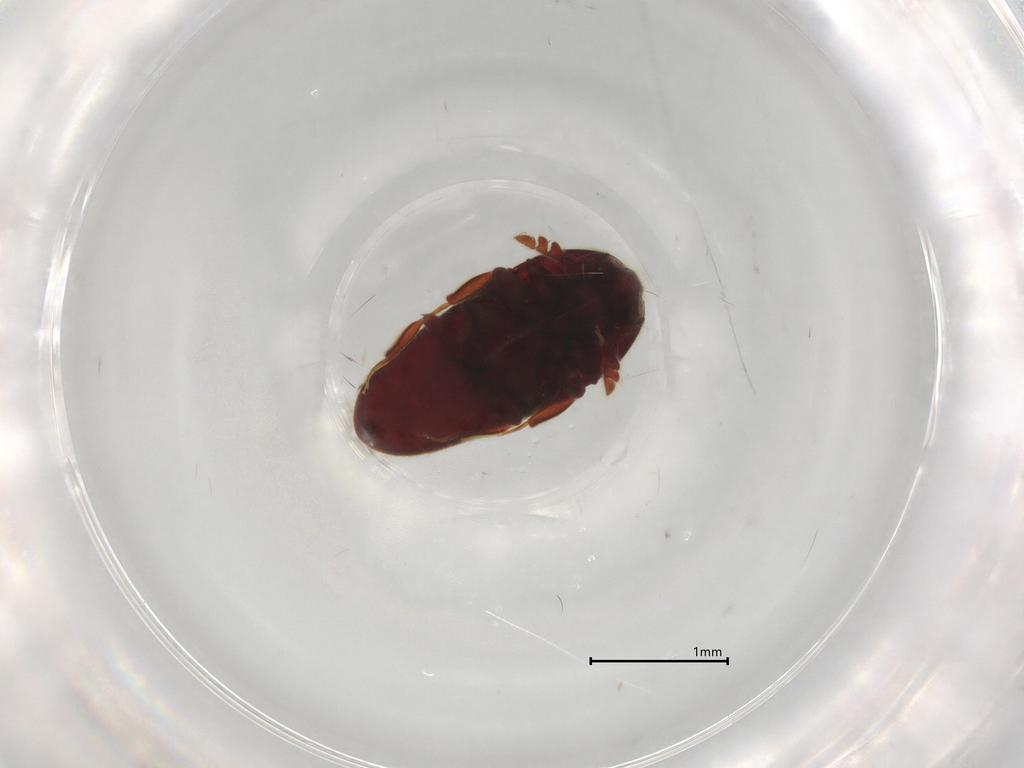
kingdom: Animalia
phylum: Arthropoda
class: Insecta
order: Coleoptera
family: Throscidae
